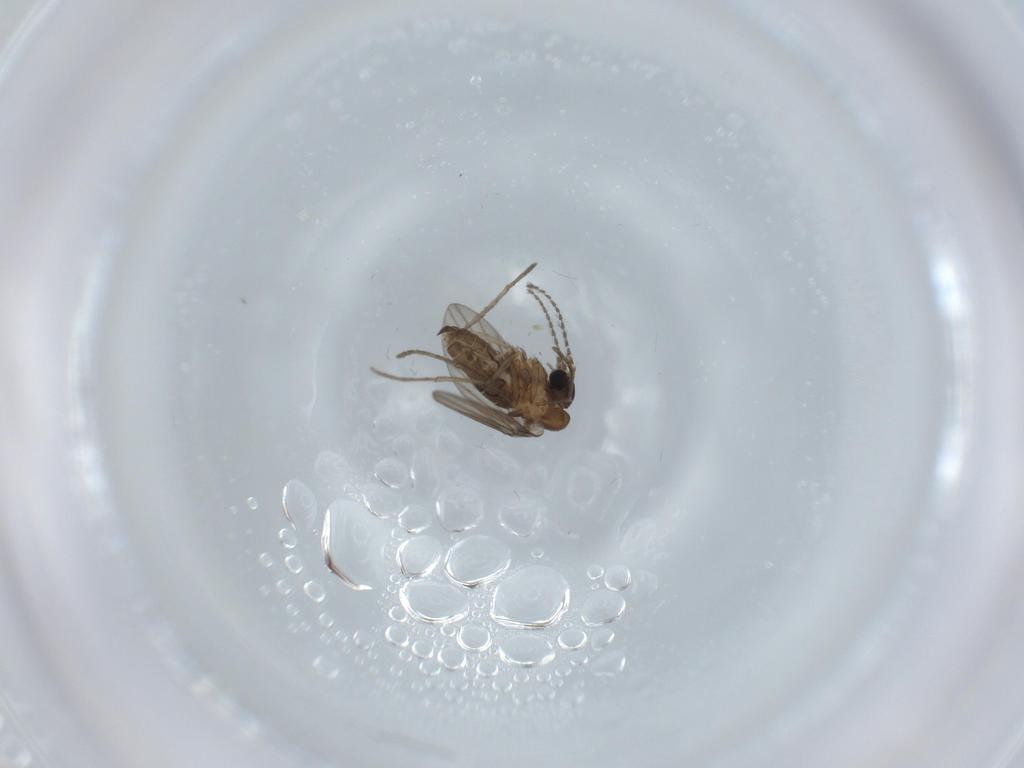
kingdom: Animalia
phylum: Arthropoda
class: Insecta
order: Diptera
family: Psychodidae
